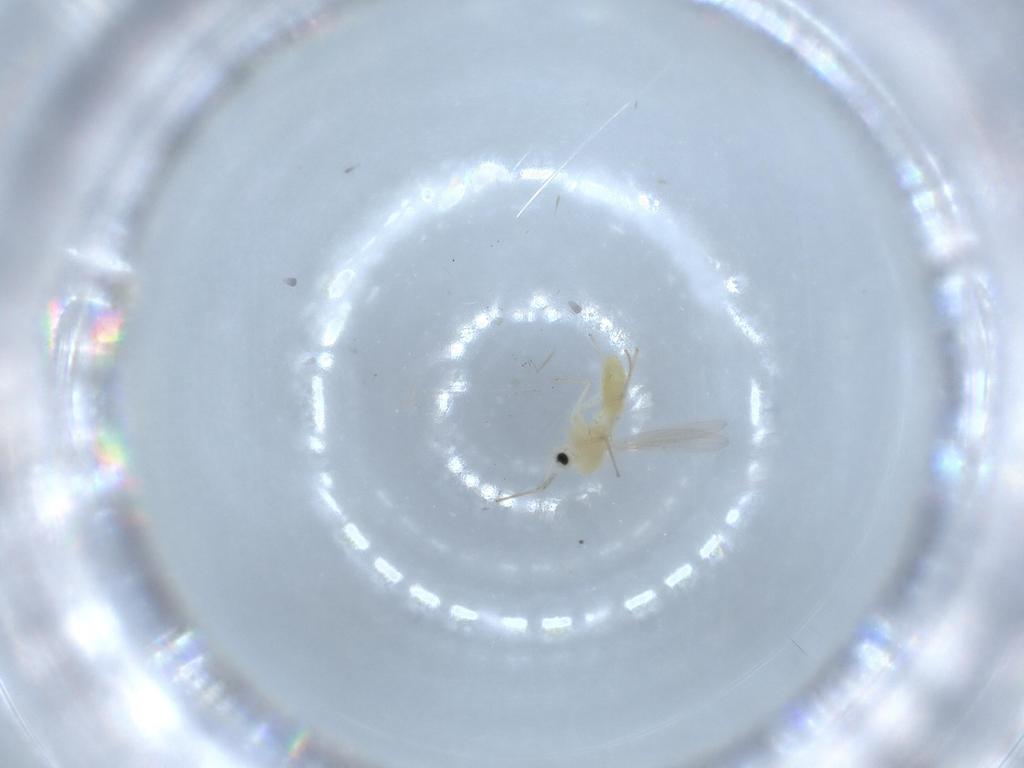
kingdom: Animalia
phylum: Arthropoda
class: Insecta
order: Diptera
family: Chironomidae
